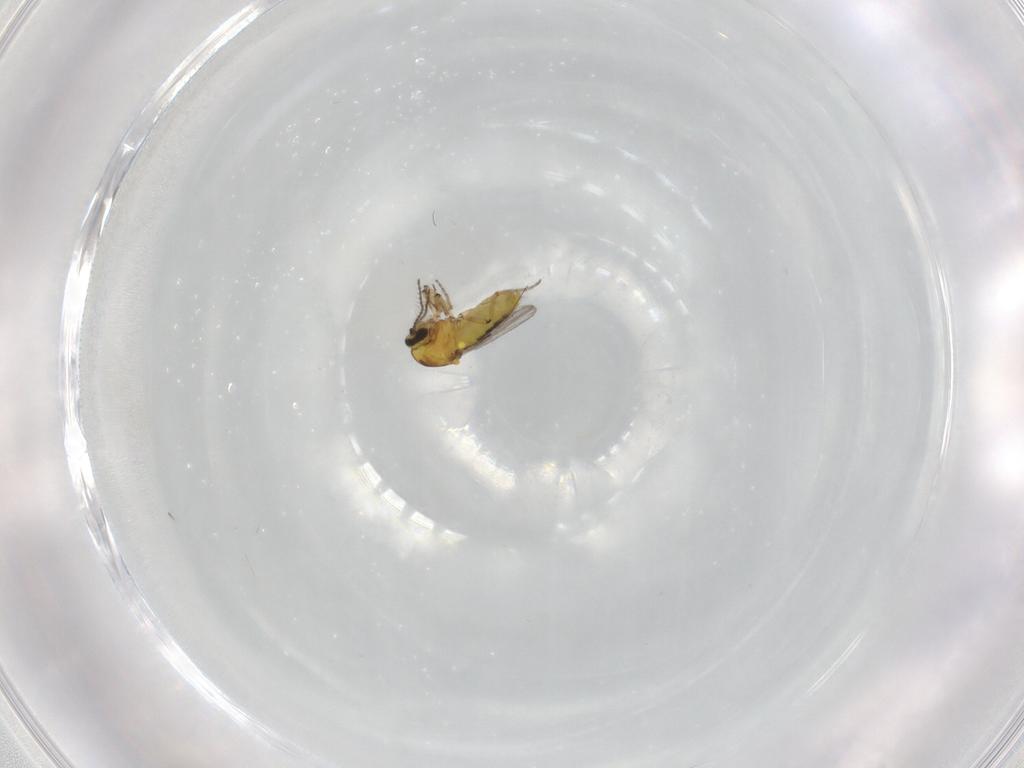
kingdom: Animalia
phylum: Arthropoda
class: Insecta
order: Diptera
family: Ceratopogonidae
